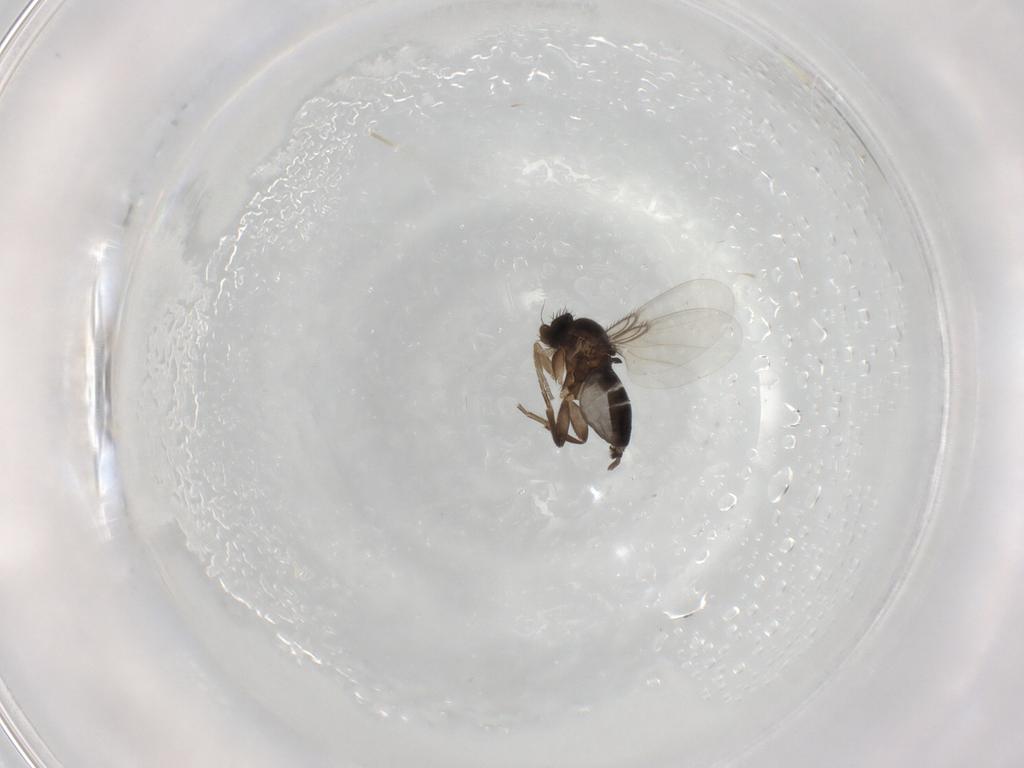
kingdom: Animalia
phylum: Arthropoda
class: Insecta
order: Diptera
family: Phoridae
